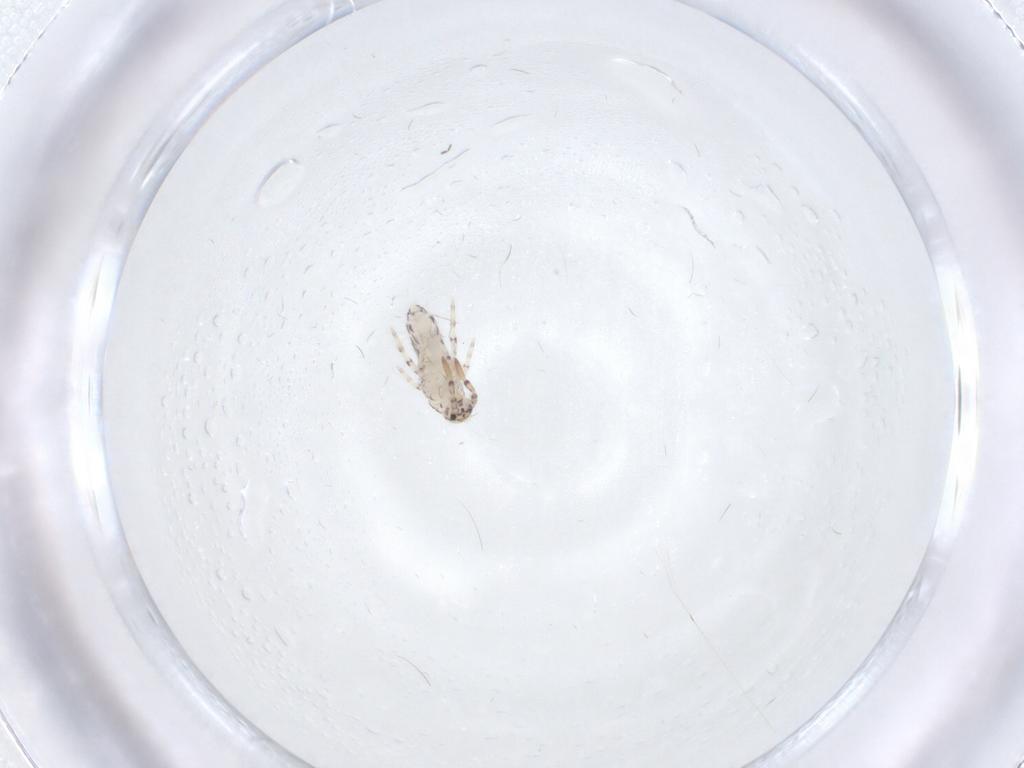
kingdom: Animalia
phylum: Arthropoda
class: Collembola
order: Entomobryomorpha
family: Entomobryidae
